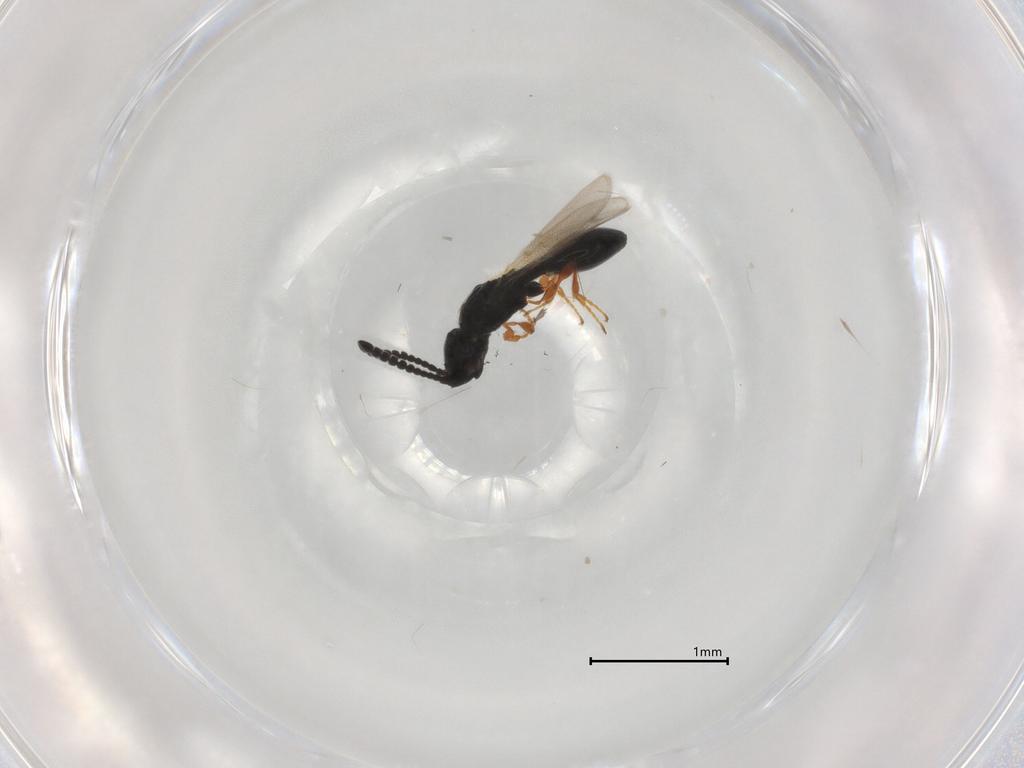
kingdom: Animalia
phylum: Arthropoda
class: Insecta
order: Hymenoptera
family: Diapriidae
